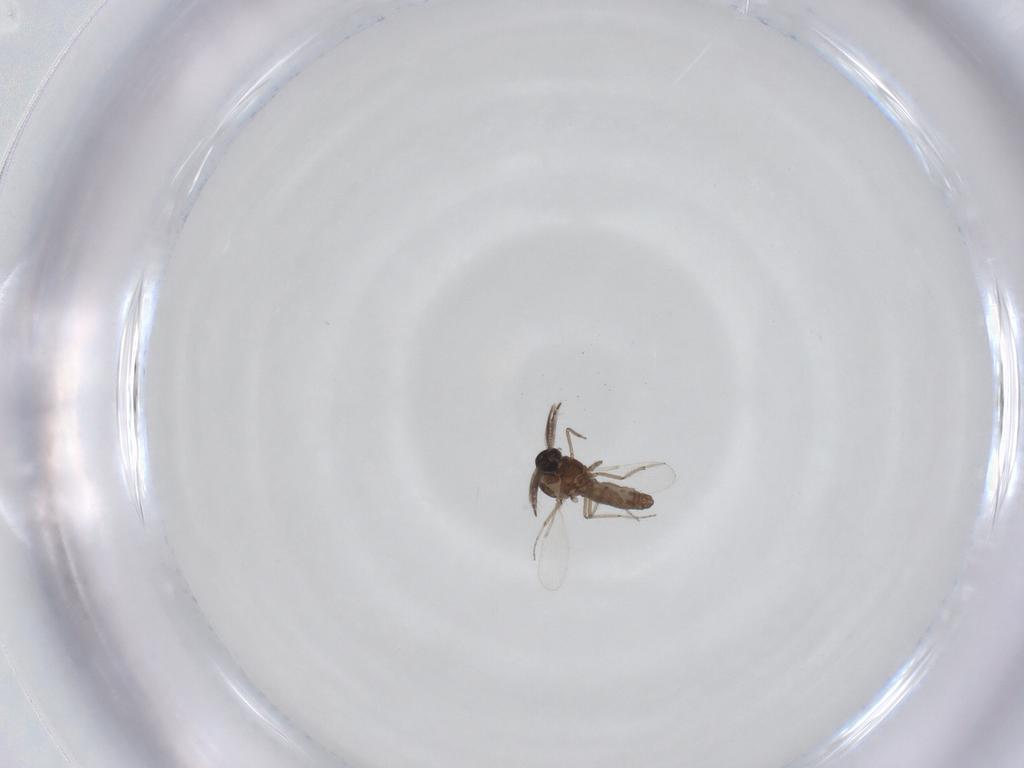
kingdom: Animalia
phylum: Arthropoda
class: Insecta
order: Diptera
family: Ceratopogonidae
